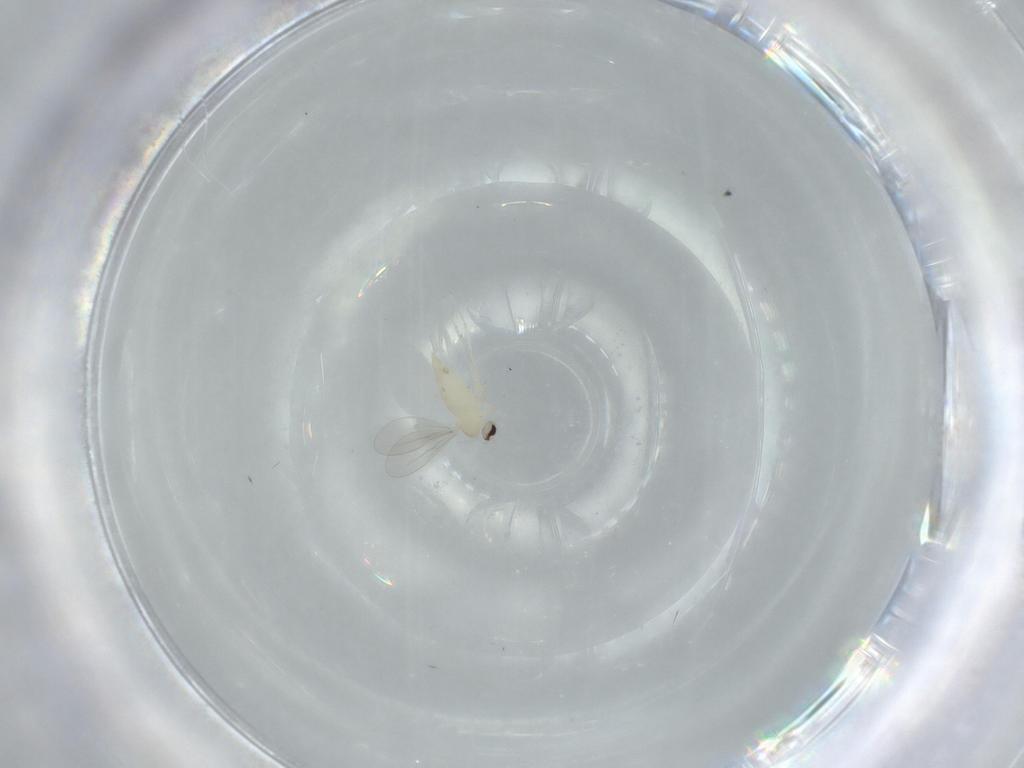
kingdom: Animalia
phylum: Arthropoda
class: Insecta
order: Diptera
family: Cecidomyiidae
